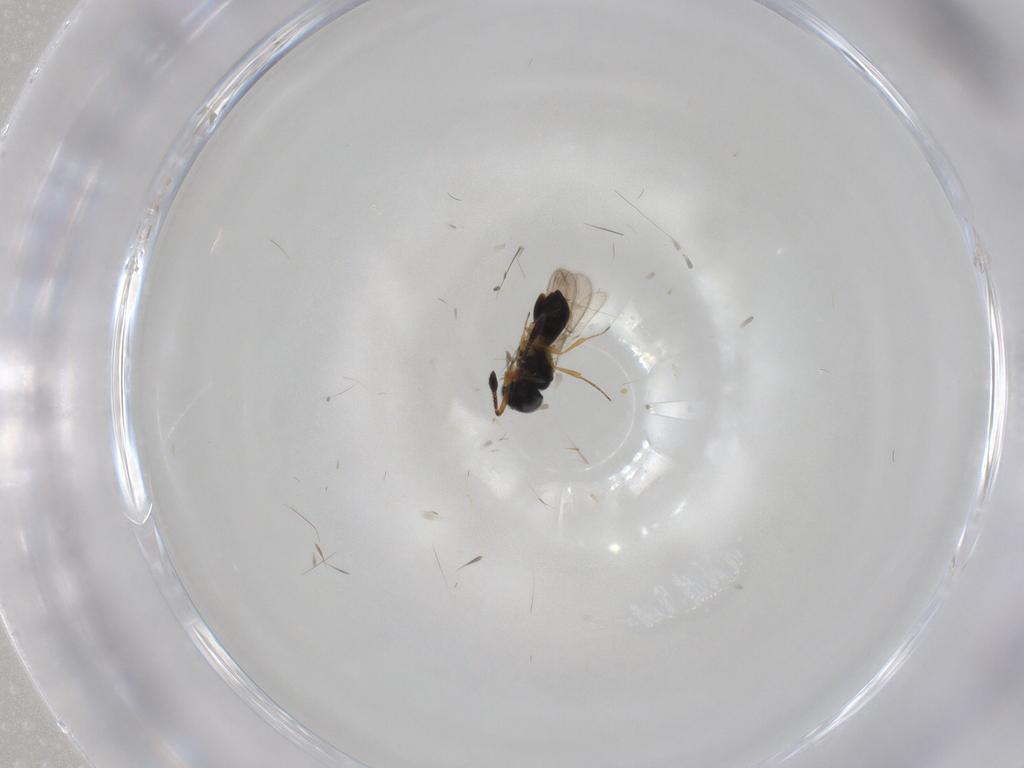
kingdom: Animalia
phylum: Arthropoda
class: Insecta
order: Hymenoptera
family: Scelionidae
